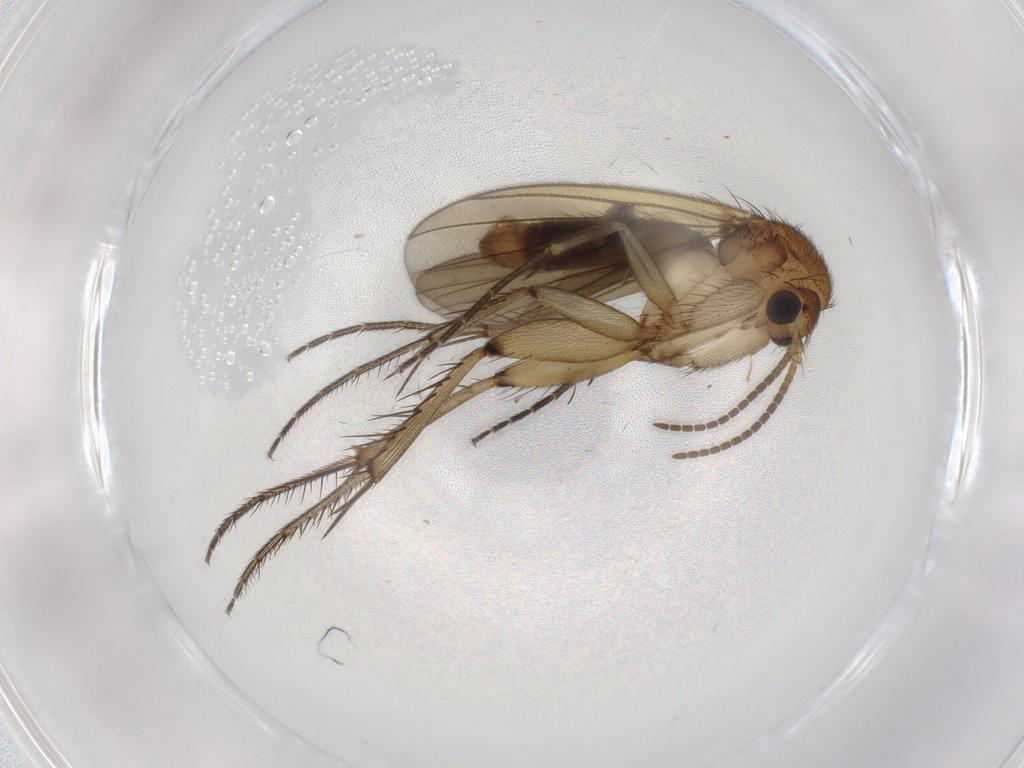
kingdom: Animalia
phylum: Arthropoda
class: Insecta
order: Diptera
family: Mycetophilidae
